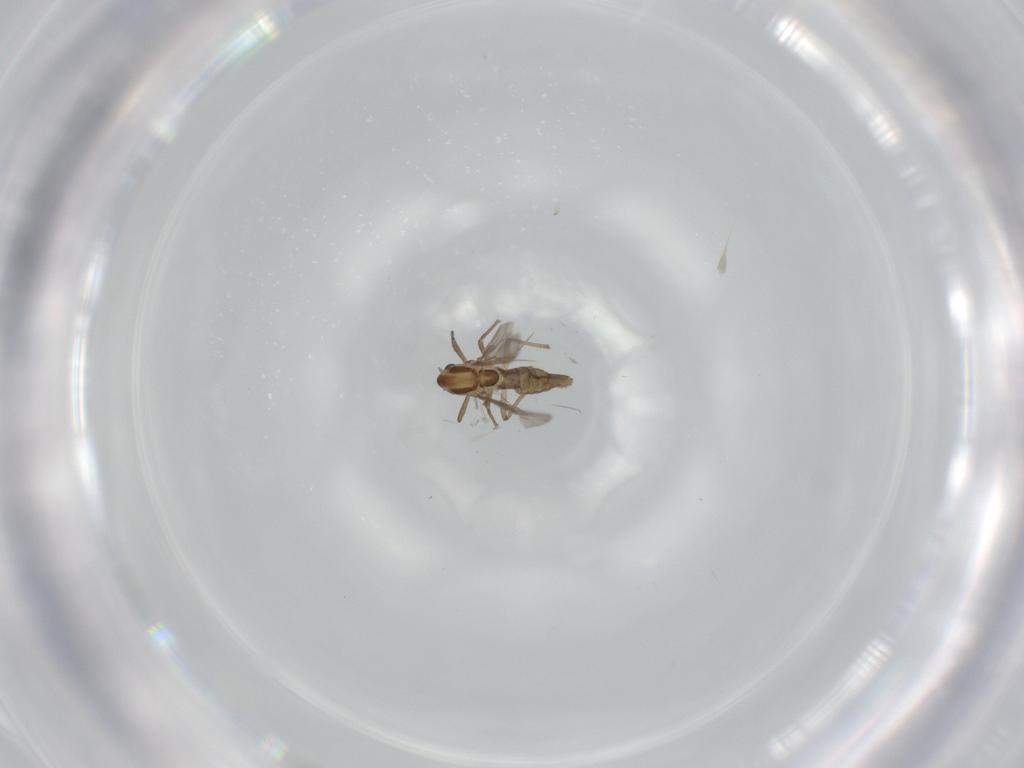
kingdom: Animalia
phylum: Arthropoda
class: Insecta
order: Diptera
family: Chironomidae
